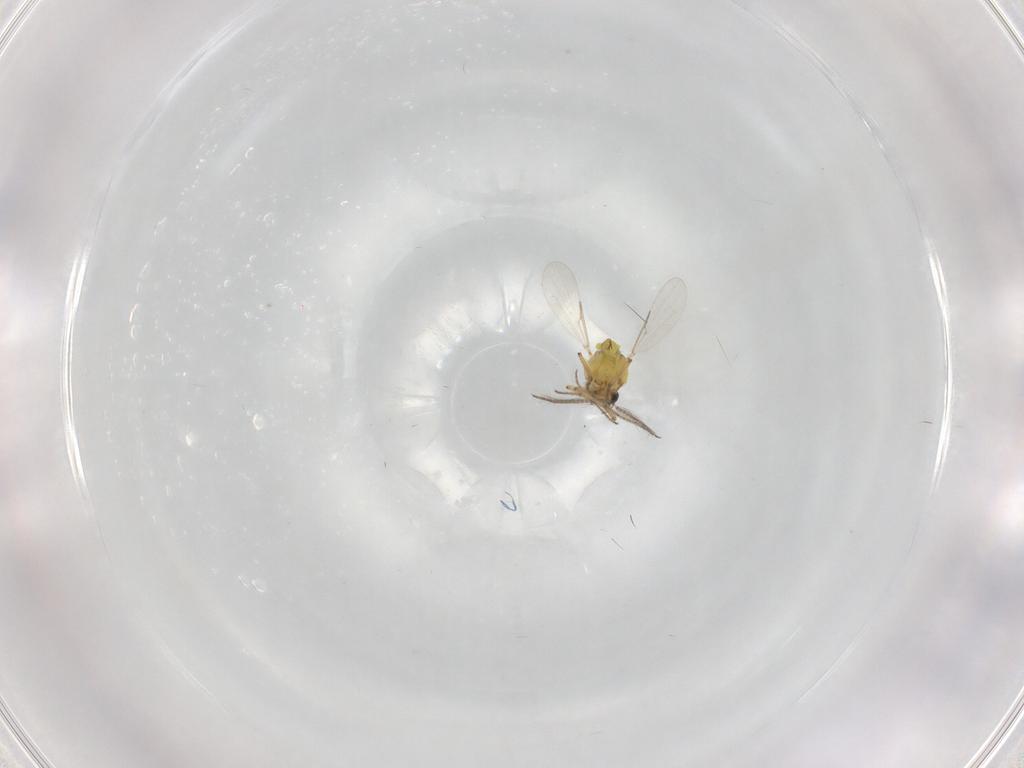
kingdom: Animalia
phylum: Arthropoda
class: Insecta
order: Diptera
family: Ceratopogonidae
